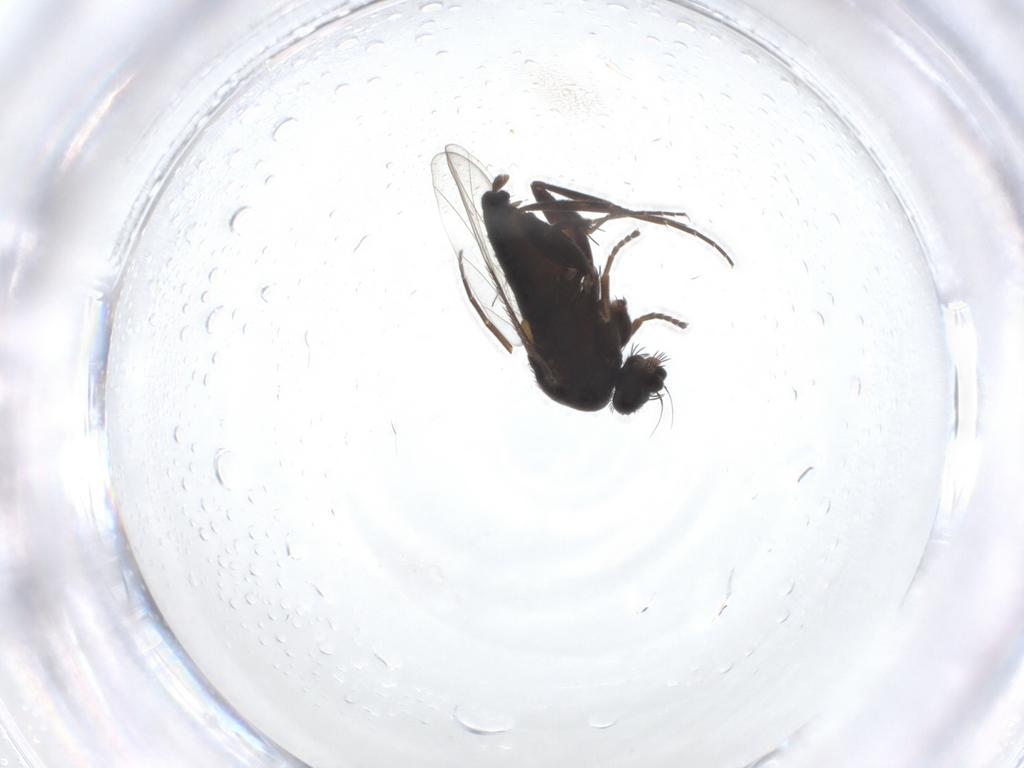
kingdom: Animalia
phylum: Arthropoda
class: Insecta
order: Diptera
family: Phoridae
